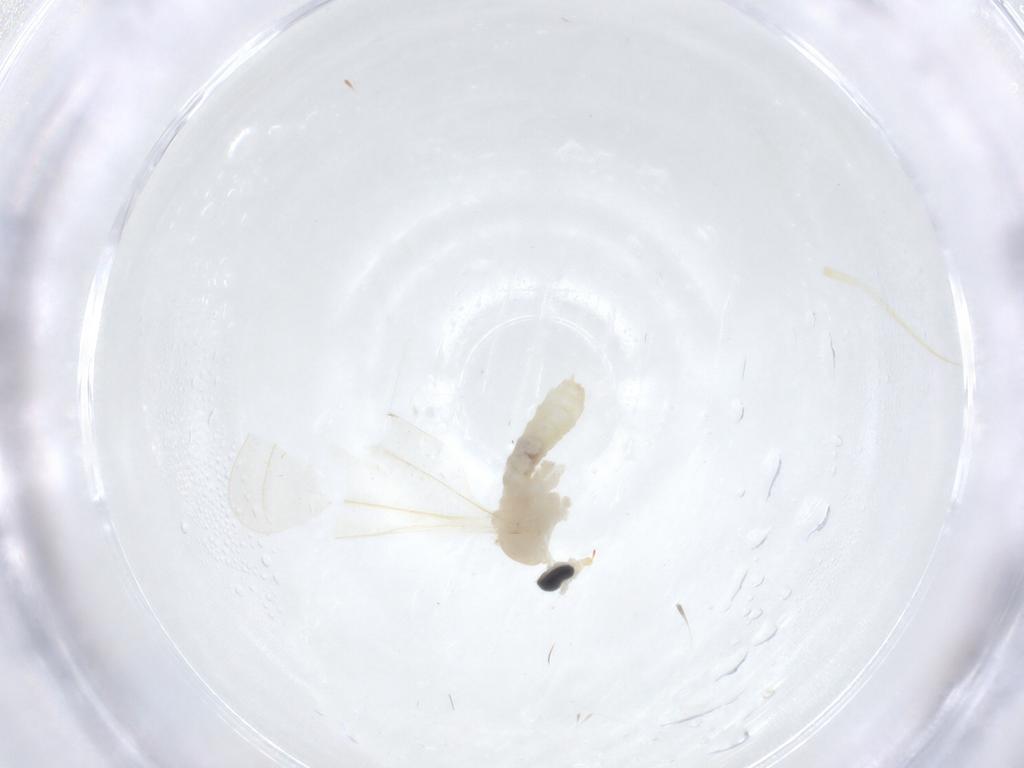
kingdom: Animalia
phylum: Arthropoda
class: Insecta
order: Diptera
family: Cecidomyiidae
